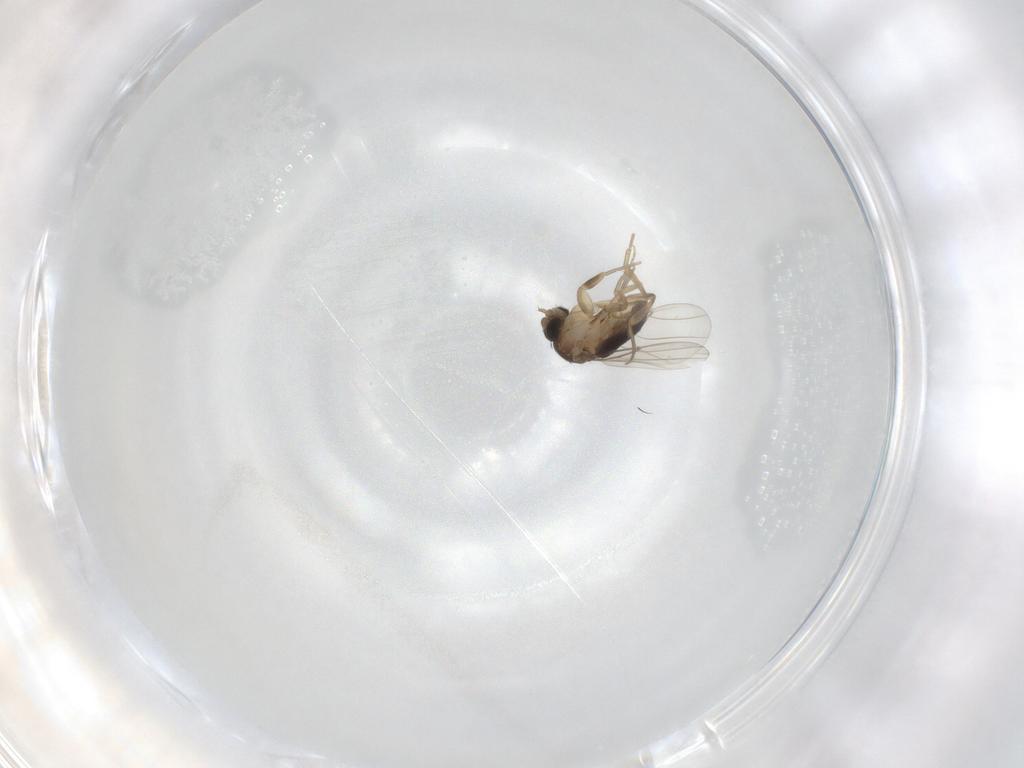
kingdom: Animalia
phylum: Arthropoda
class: Insecta
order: Diptera
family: Phoridae
